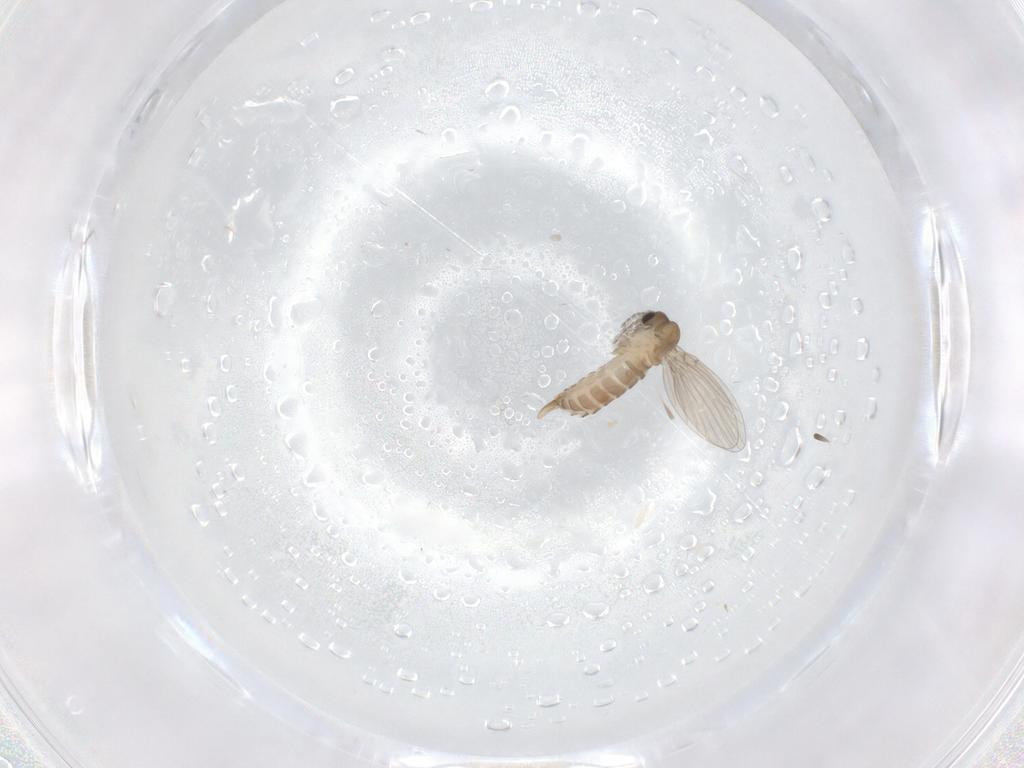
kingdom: Animalia
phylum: Arthropoda
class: Insecta
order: Diptera
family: Psychodidae
